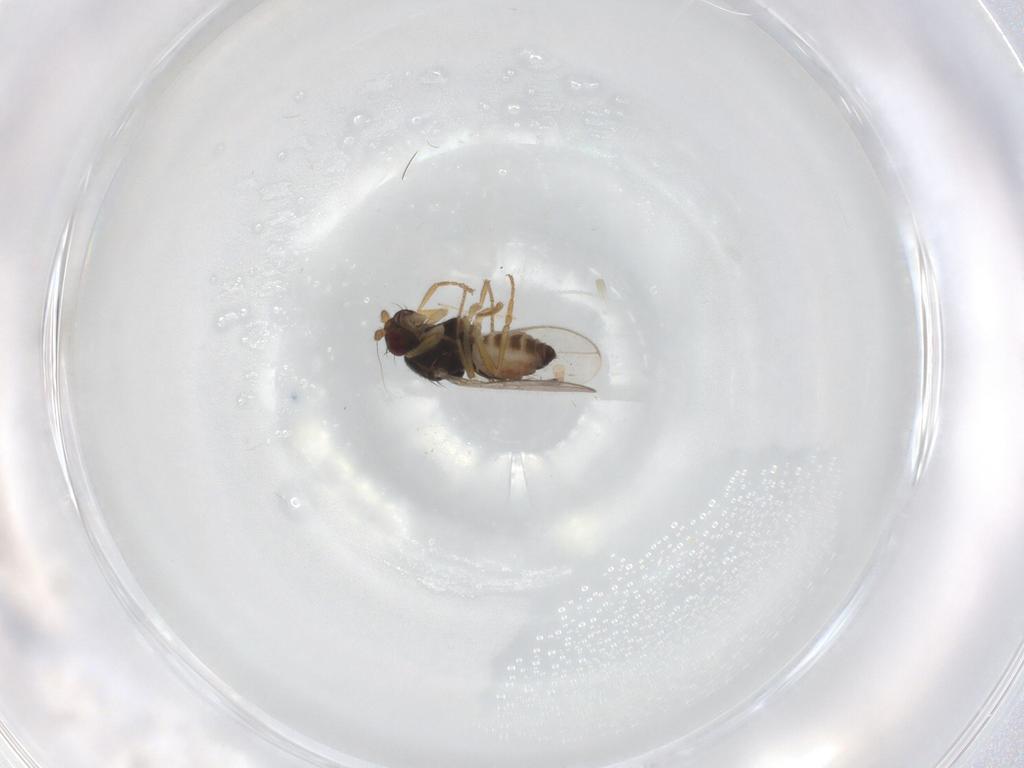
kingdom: Animalia
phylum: Arthropoda
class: Insecta
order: Diptera
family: Sphaeroceridae
